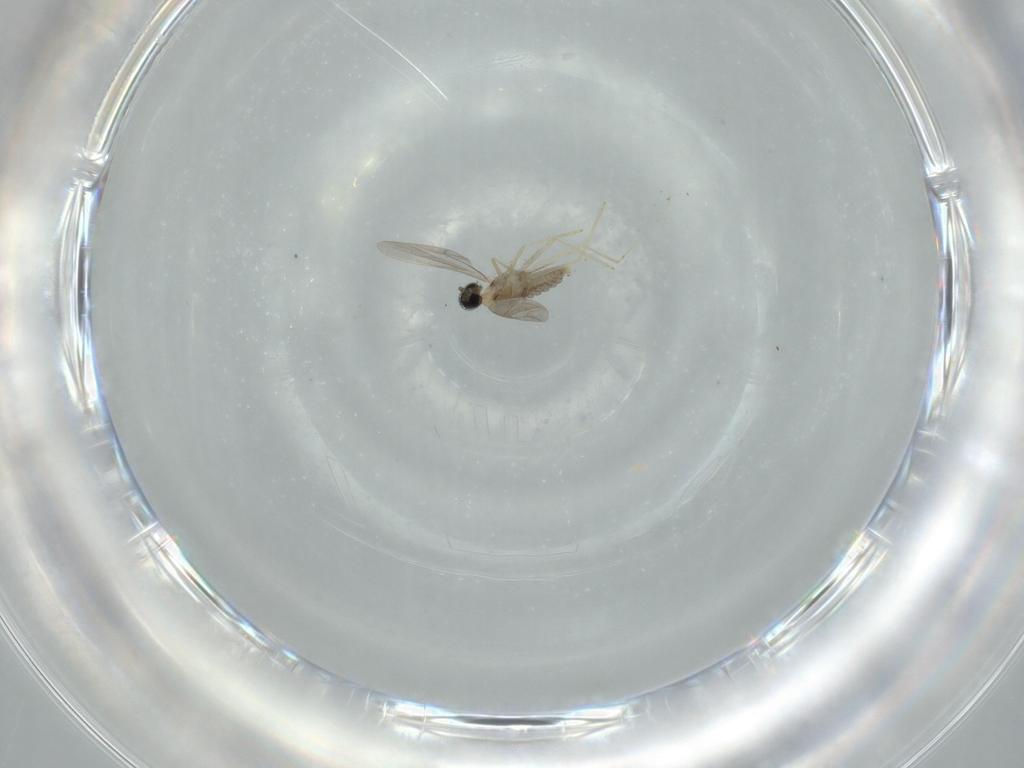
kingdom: Animalia
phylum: Arthropoda
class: Insecta
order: Diptera
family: Cecidomyiidae
